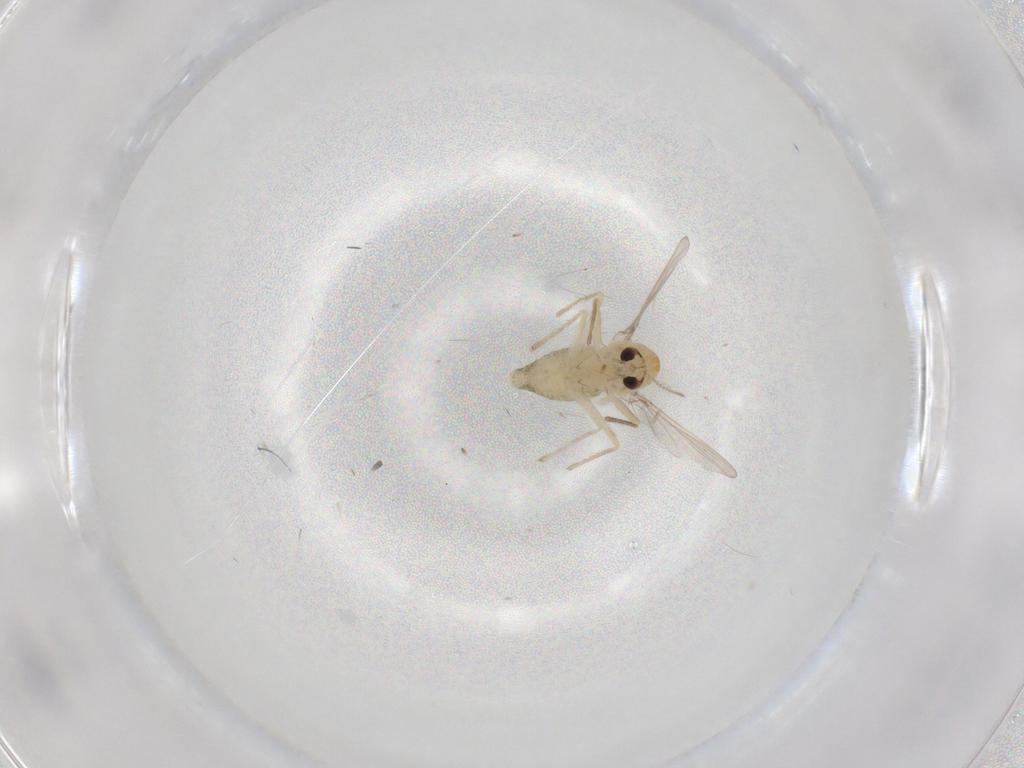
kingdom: Animalia
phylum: Arthropoda
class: Insecta
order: Diptera
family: Chironomidae
